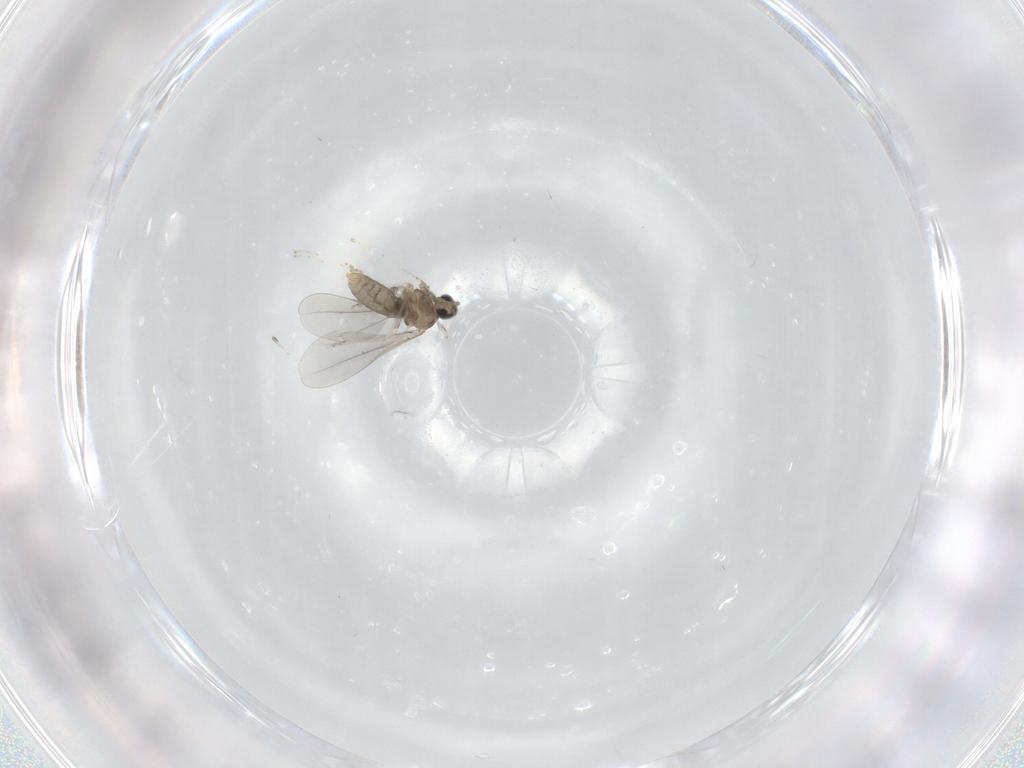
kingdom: Animalia
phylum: Arthropoda
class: Insecta
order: Diptera
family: Cecidomyiidae
